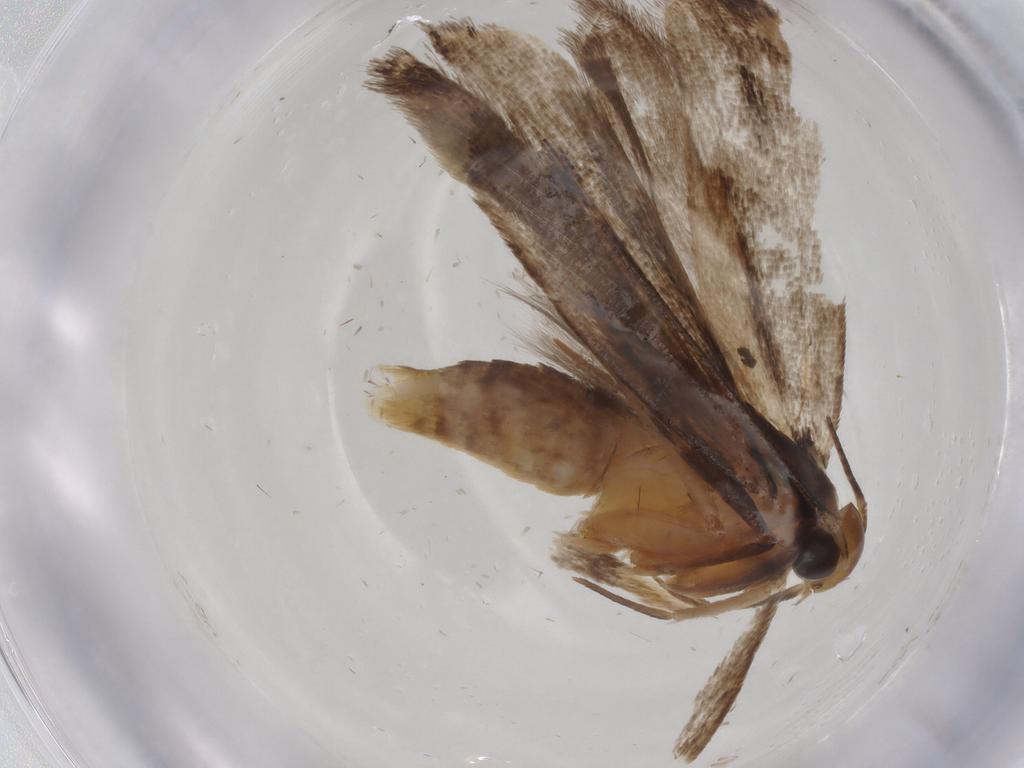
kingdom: Animalia
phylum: Arthropoda
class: Insecta
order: Lepidoptera
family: Gelechiidae
